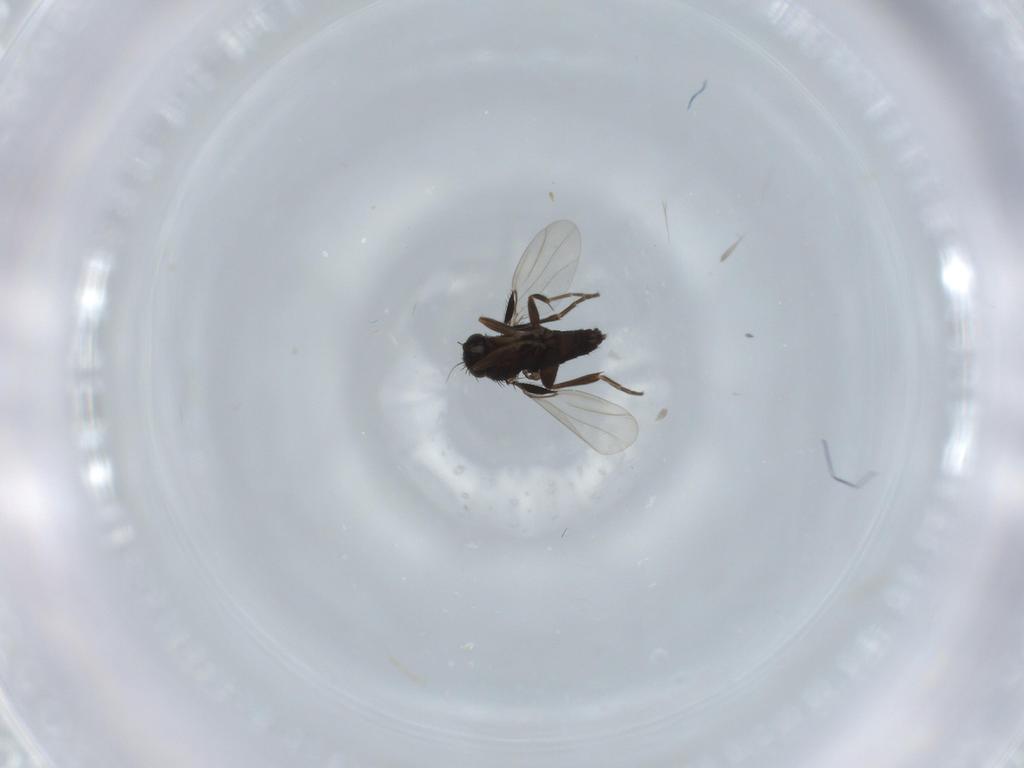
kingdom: Animalia
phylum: Arthropoda
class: Insecta
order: Diptera
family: Phoridae
